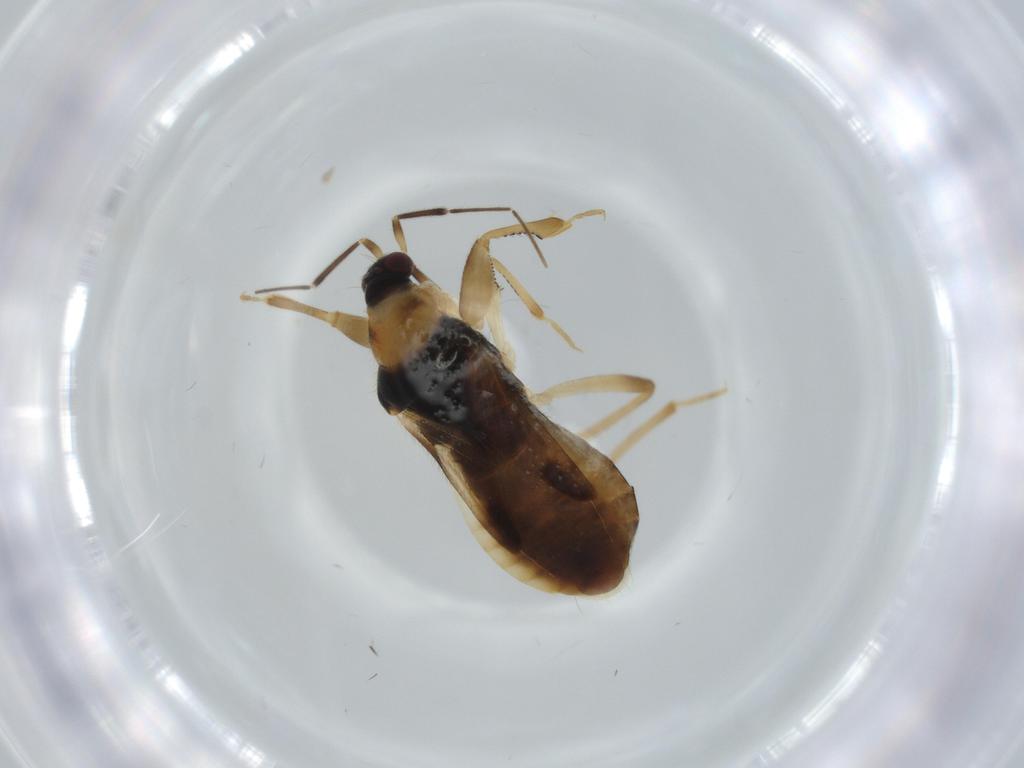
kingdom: Animalia
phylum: Arthropoda
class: Insecta
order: Hemiptera
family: Nabidae
